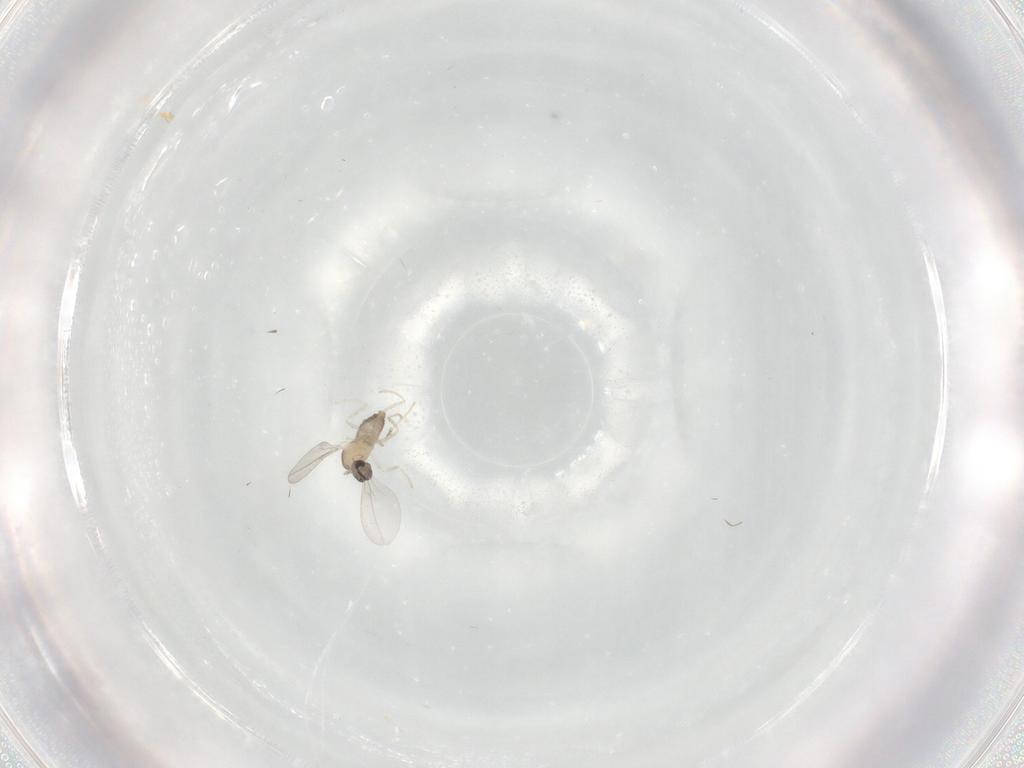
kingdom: Animalia
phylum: Arthropoda
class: Insecta
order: Diptera
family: Cecidomyiidae
